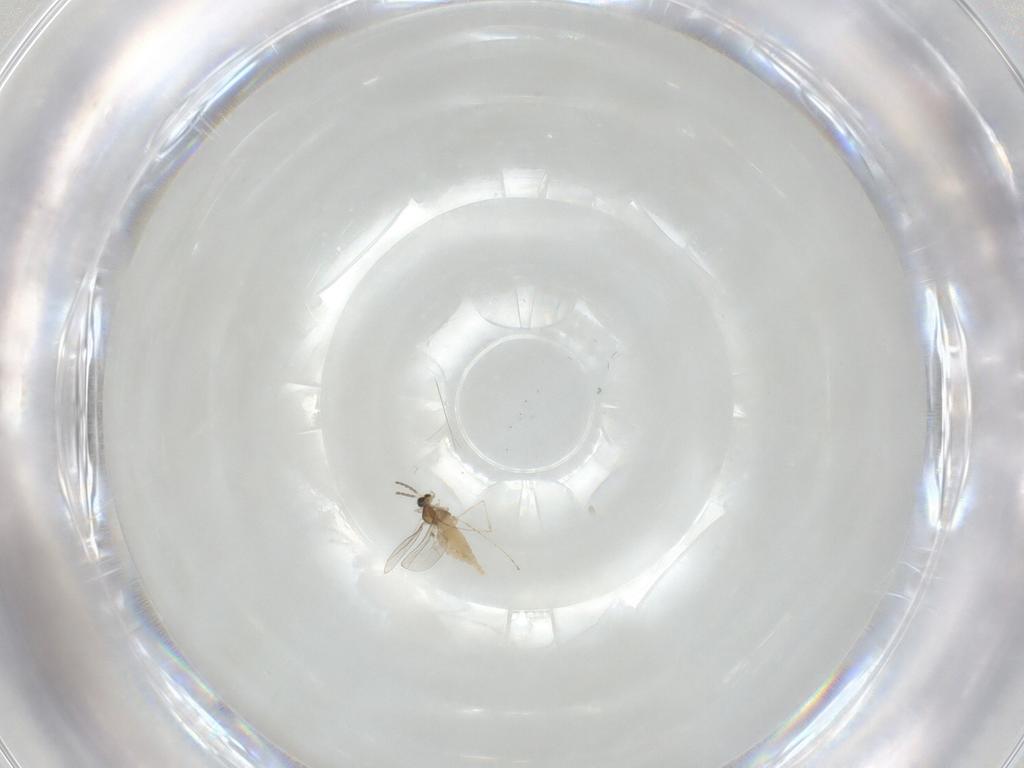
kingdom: Animalia
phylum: Arthropoda
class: Insecta
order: Diptera
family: Cecidomyiidae
